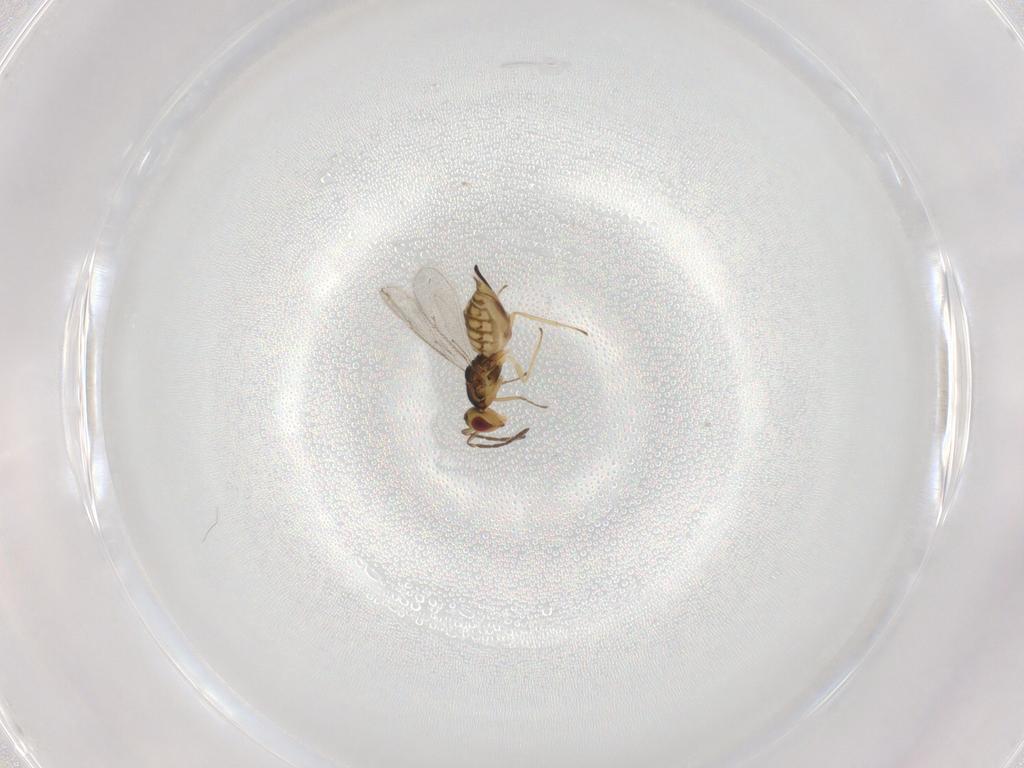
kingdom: Animalia
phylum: Arthropoda
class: Insecta
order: Hymenoptera
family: Eulophidae
